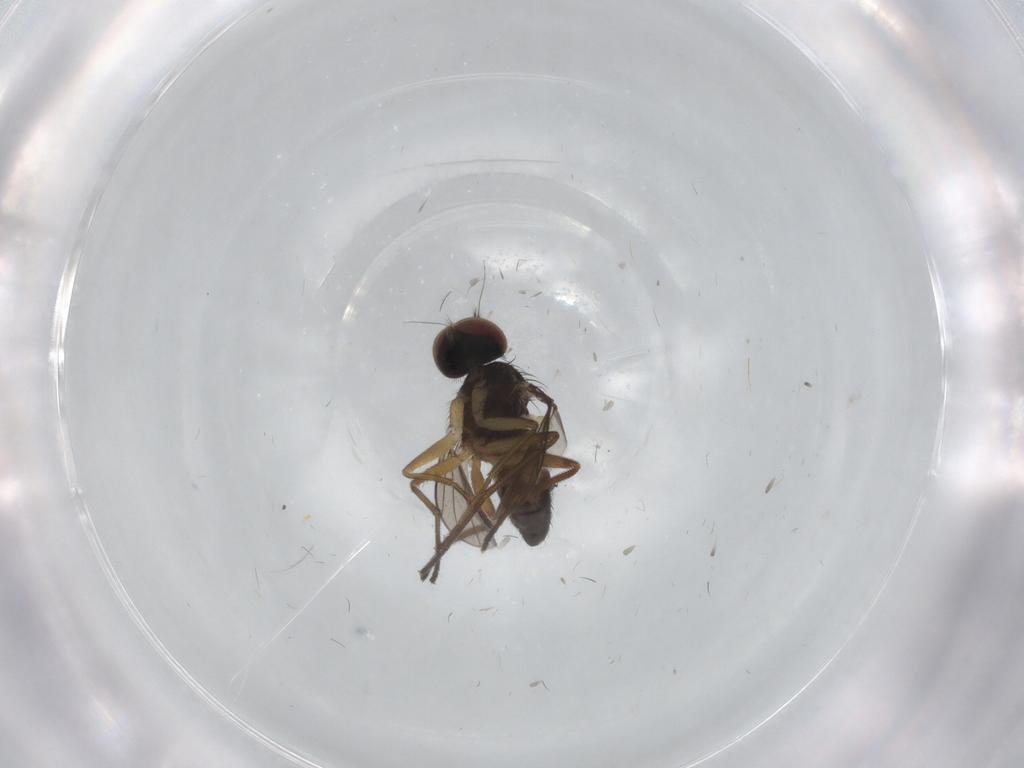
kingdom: Animalia
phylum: Arthropoda
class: Insecta
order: Diptera
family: Dolichopodidae
